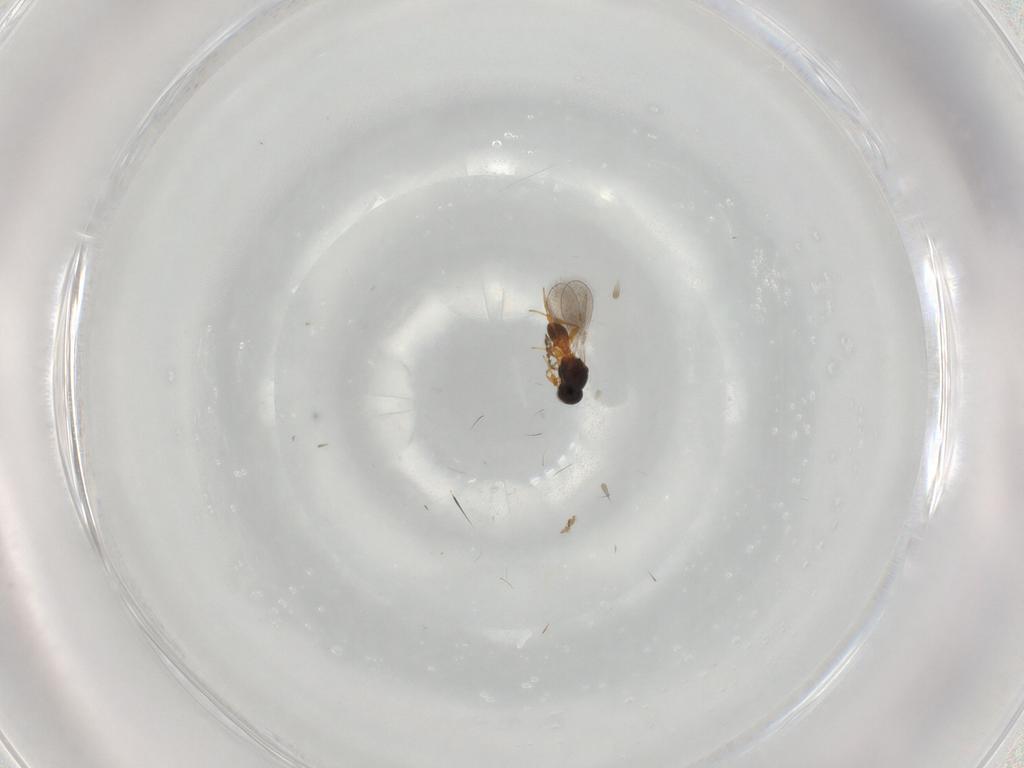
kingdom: Animalia
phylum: Arthropoda
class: Insecta
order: Hymenoptera
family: Platygastridae
